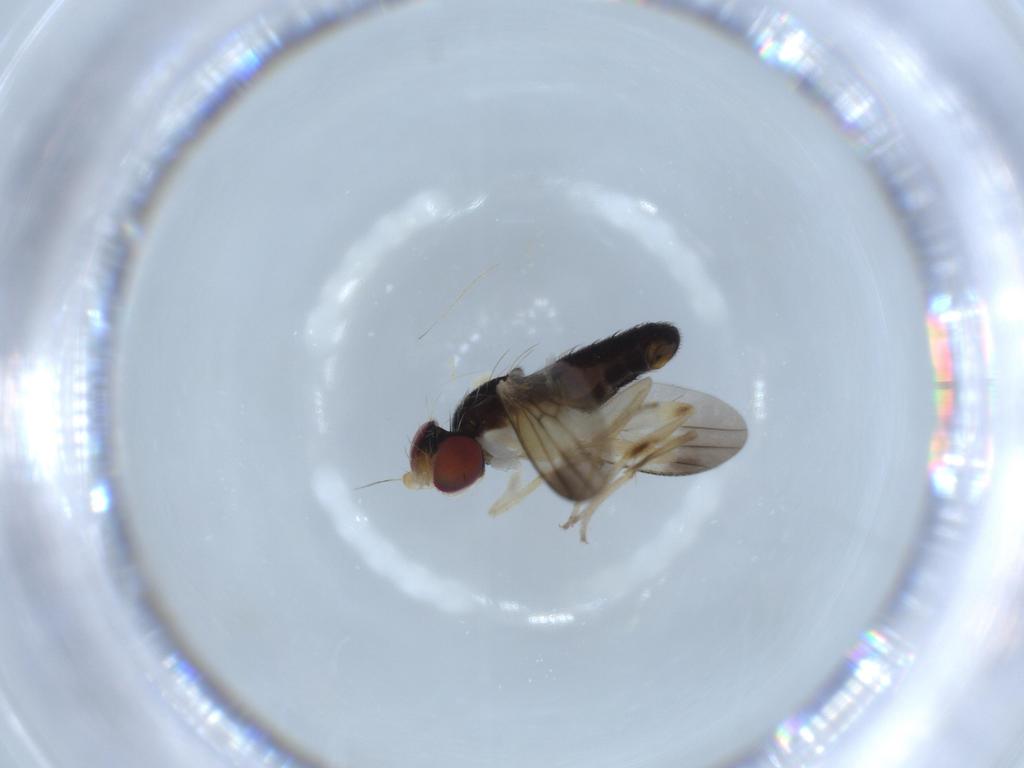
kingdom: Animalia
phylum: Arthropoda
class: Insecta
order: Diptera
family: Clusiidae
